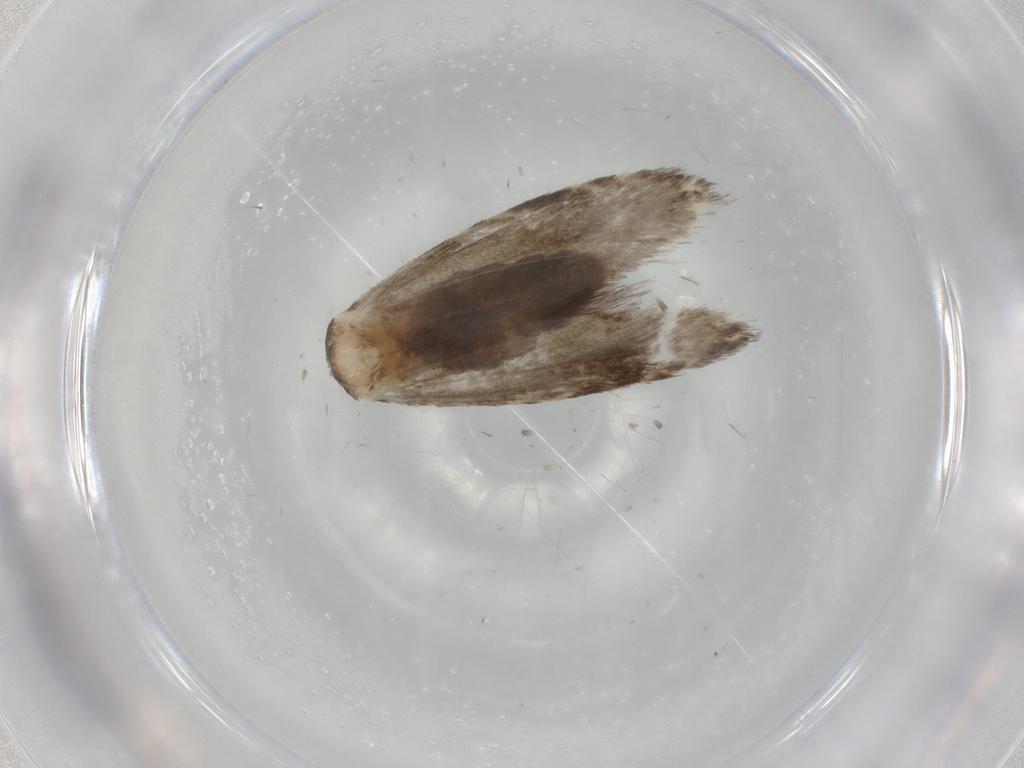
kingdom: Animalia
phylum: Arthropoda
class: Insecta
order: Lepidoptera
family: Tineidae
